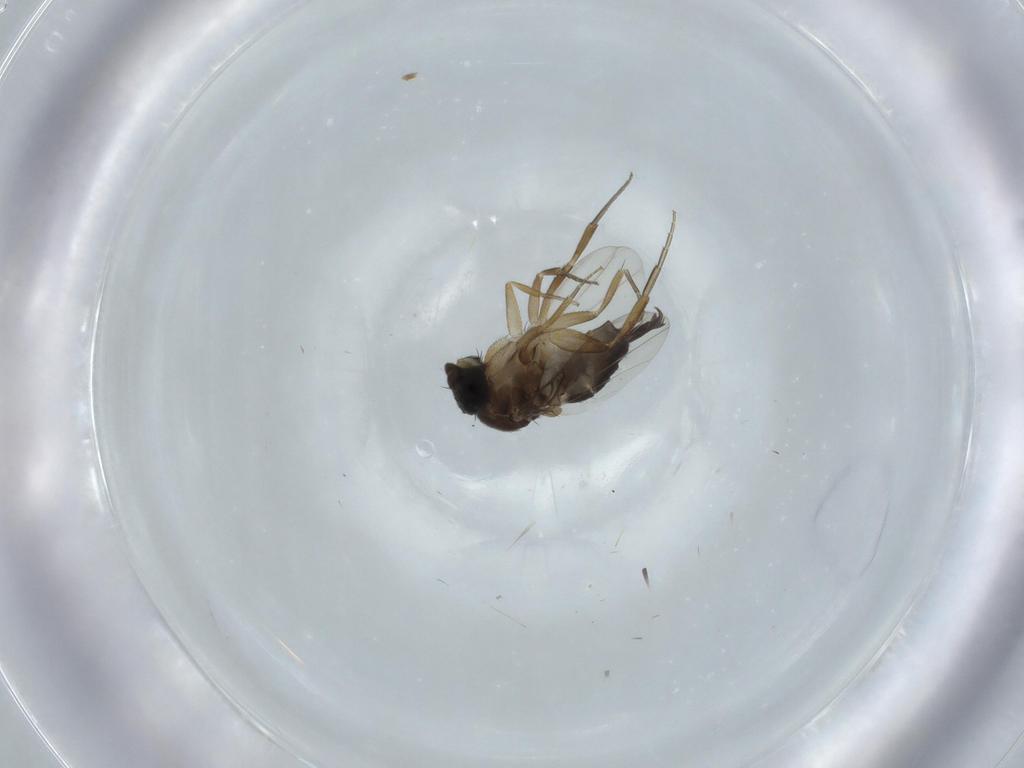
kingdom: Animalia
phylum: Arthropoda
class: Insecta
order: Diptera
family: Phoridae
